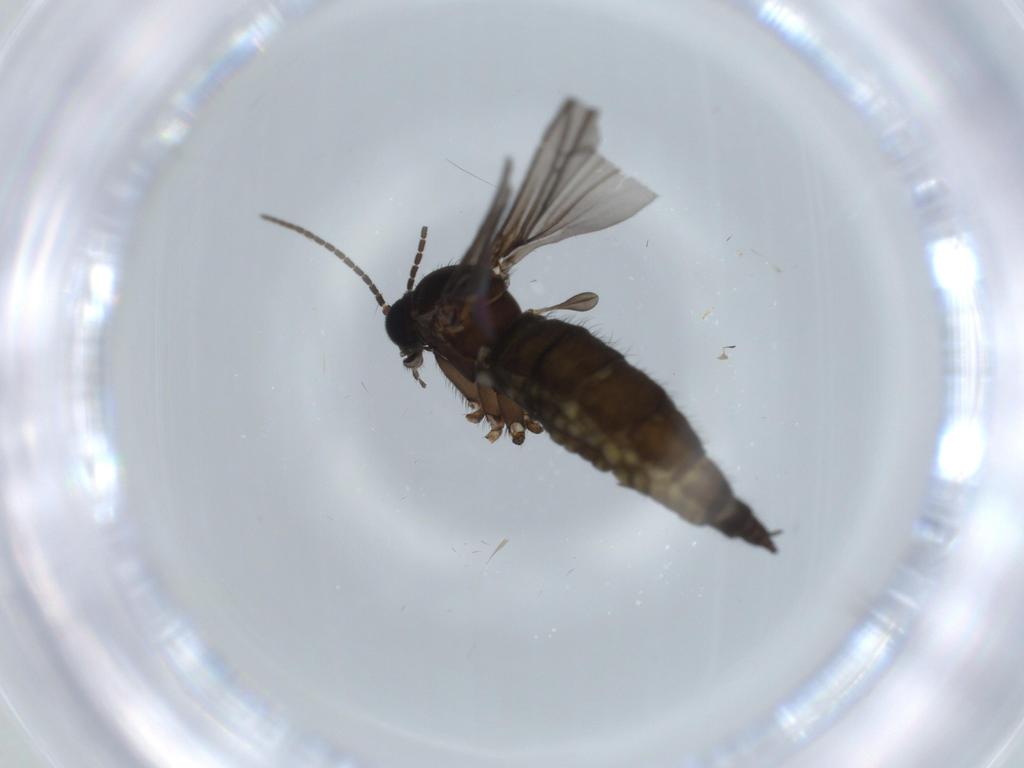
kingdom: Animalia
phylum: Arthropoda
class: Insecta
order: Diptera
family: Sciaridae
